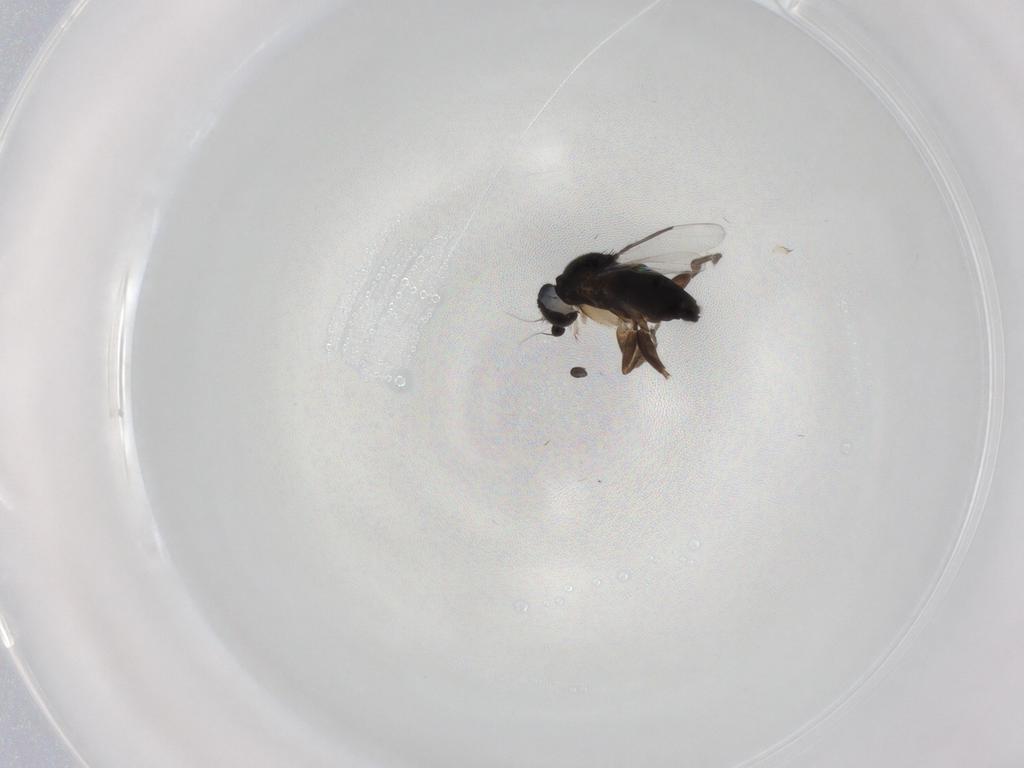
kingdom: Animalia
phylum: Arthropoda
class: Insecta
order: Diptera
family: Phoridae
